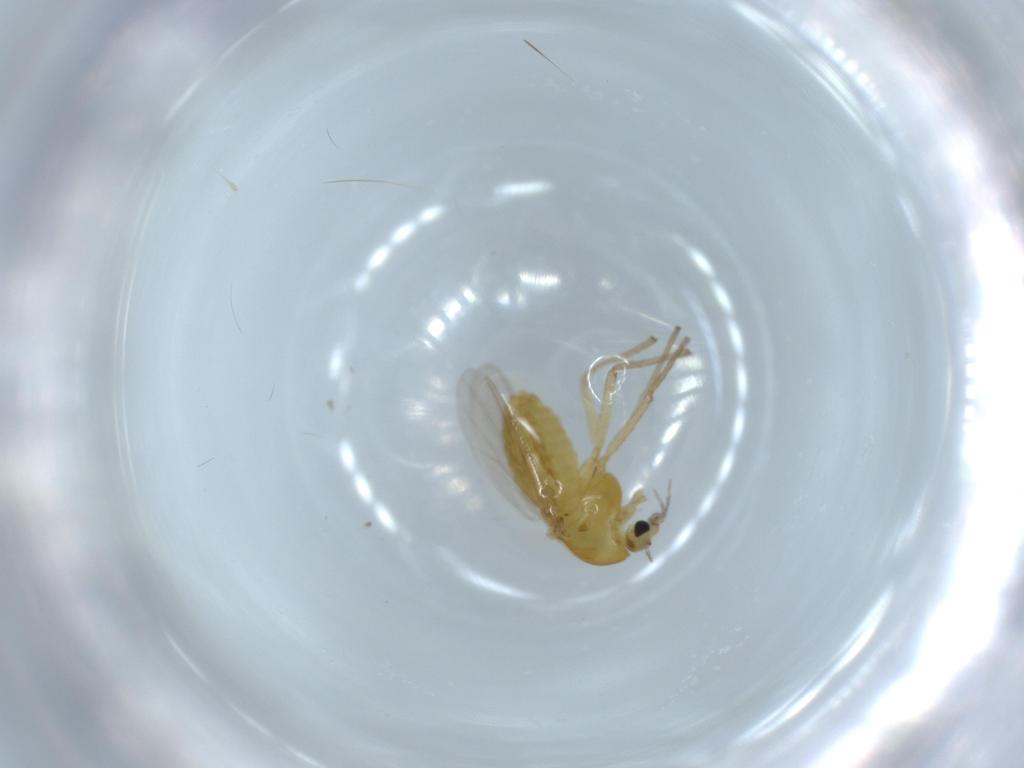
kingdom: Animalia
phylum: Arthropoda
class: Insecta
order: Diptera
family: Chironomidae
